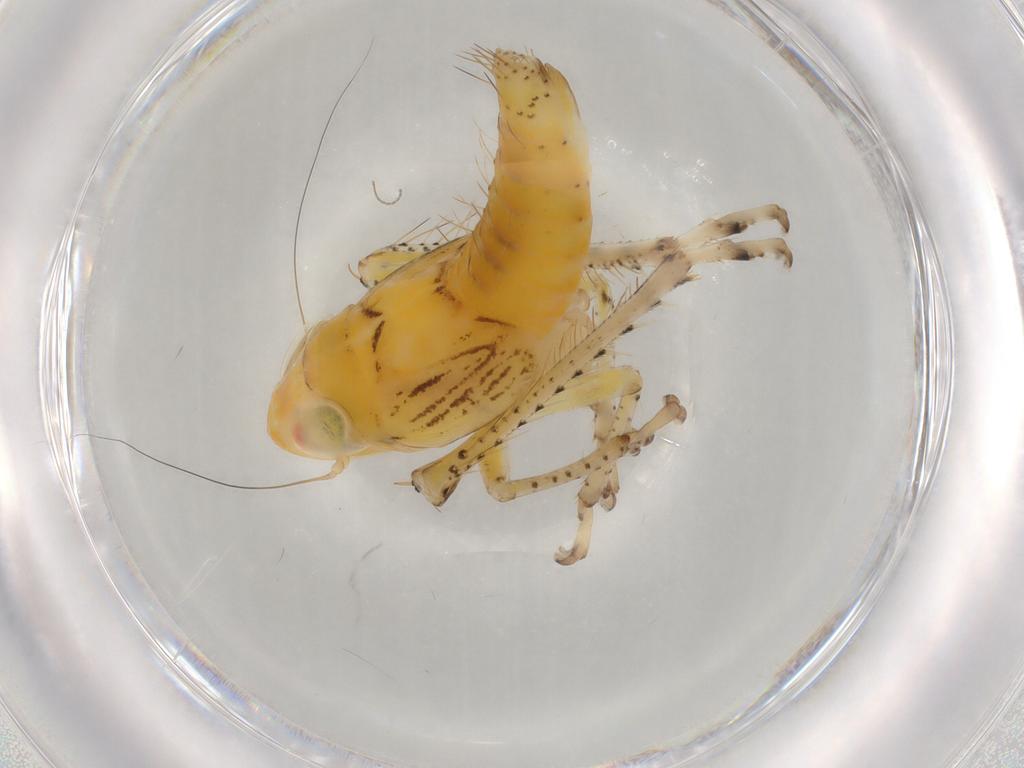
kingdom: Animalia
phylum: Arthropoda
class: Insecta
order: Hemiptera
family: Cicadellidae
